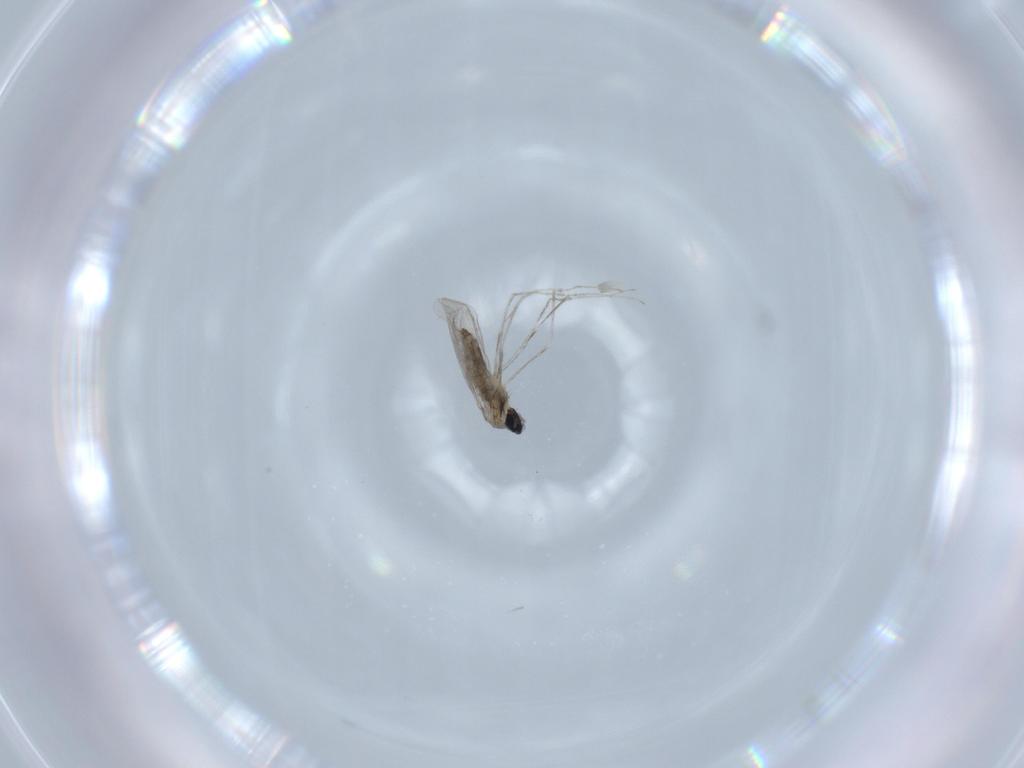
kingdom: Animalia
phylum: Arthropoda
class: Insecta
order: Diptera
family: Cecidomyiidae
